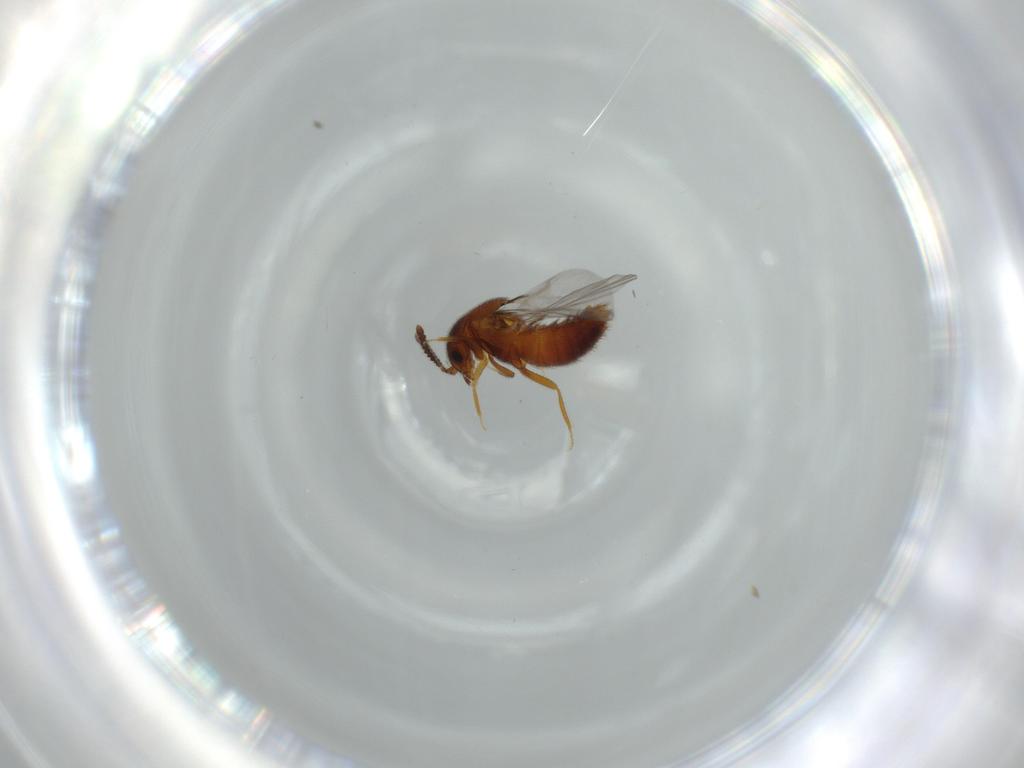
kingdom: Animalia
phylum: Arthropoda
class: Insecta
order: Coleoptera
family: Staphylinidae
